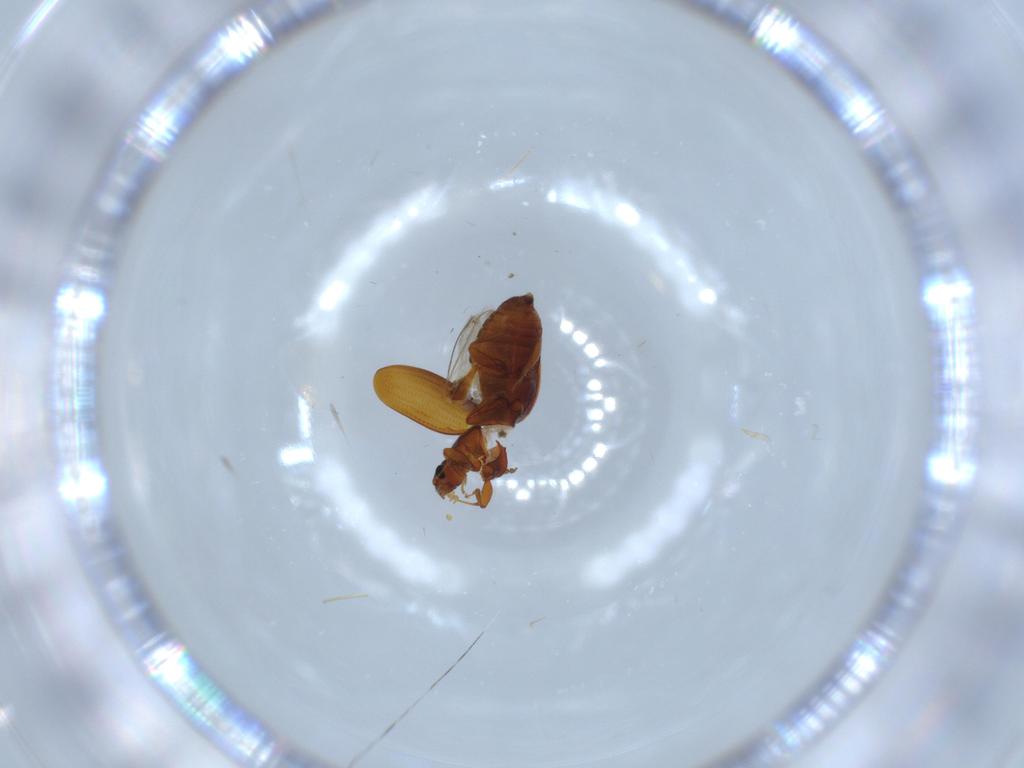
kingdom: Animalia
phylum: Arthropoda
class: Insecta
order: Coleoptera
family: Latridiidae
